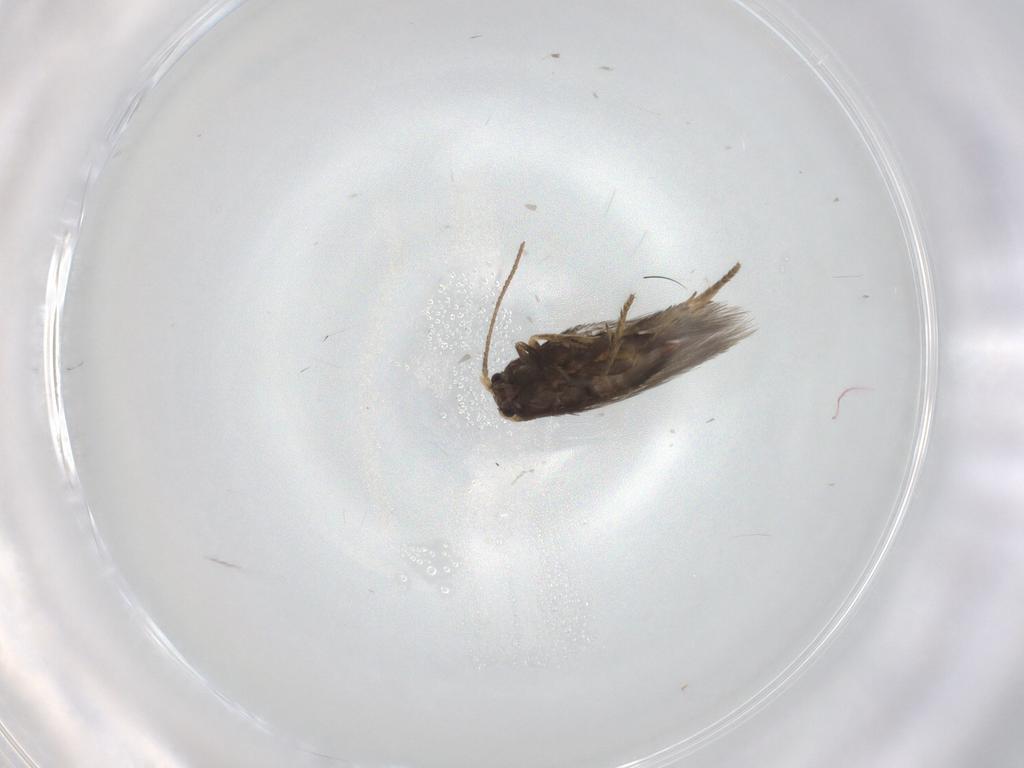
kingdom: Animalia
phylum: Arthropoda
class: Insecta
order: Lepidoptera
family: Nepticulidae
